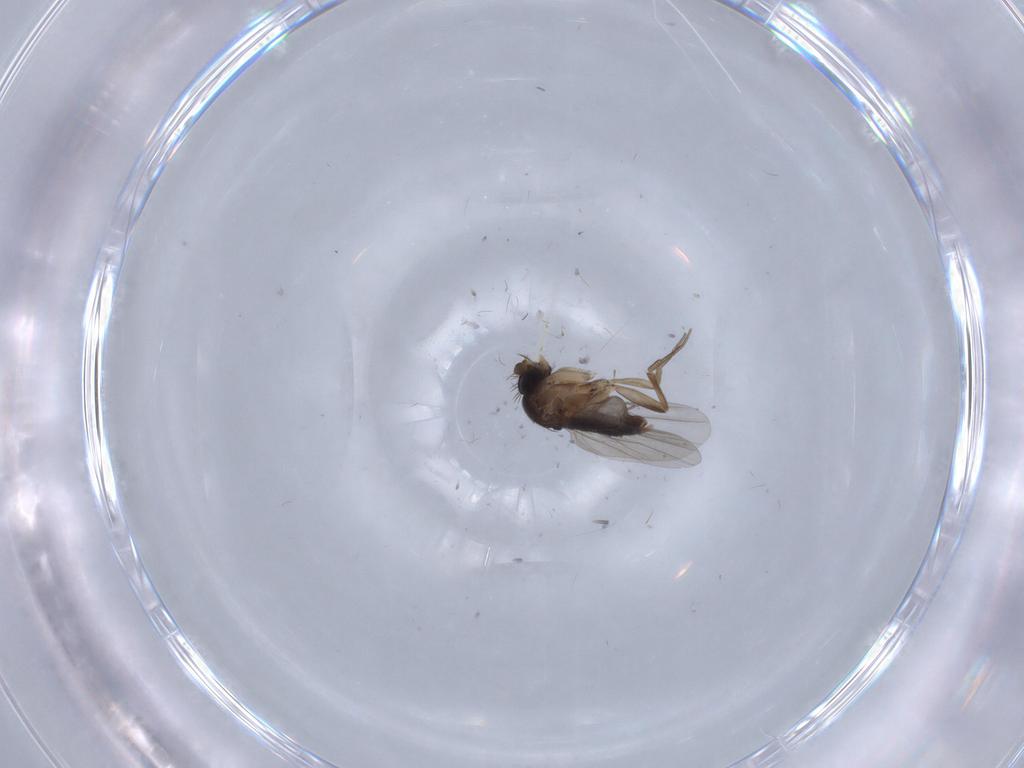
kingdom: Animalia
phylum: Arthropoda
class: Insecta
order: Diptera
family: Phoridae
